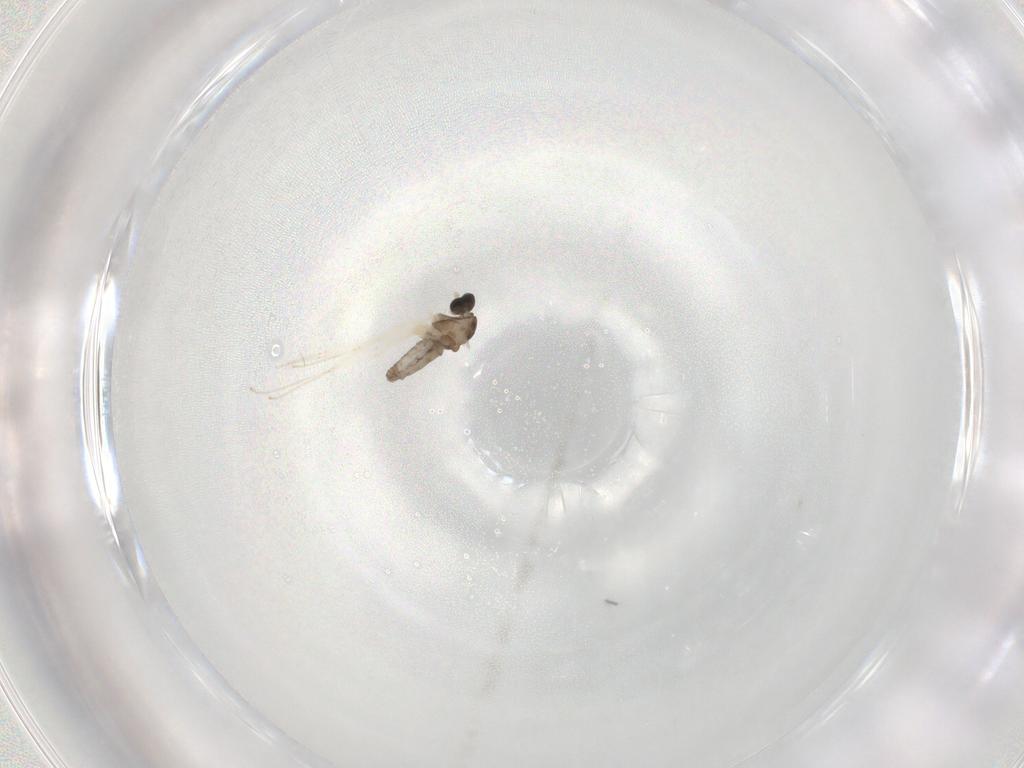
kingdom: Animalia
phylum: Arthropoda
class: Insecta
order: Diptera
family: Cecidomyiidae
